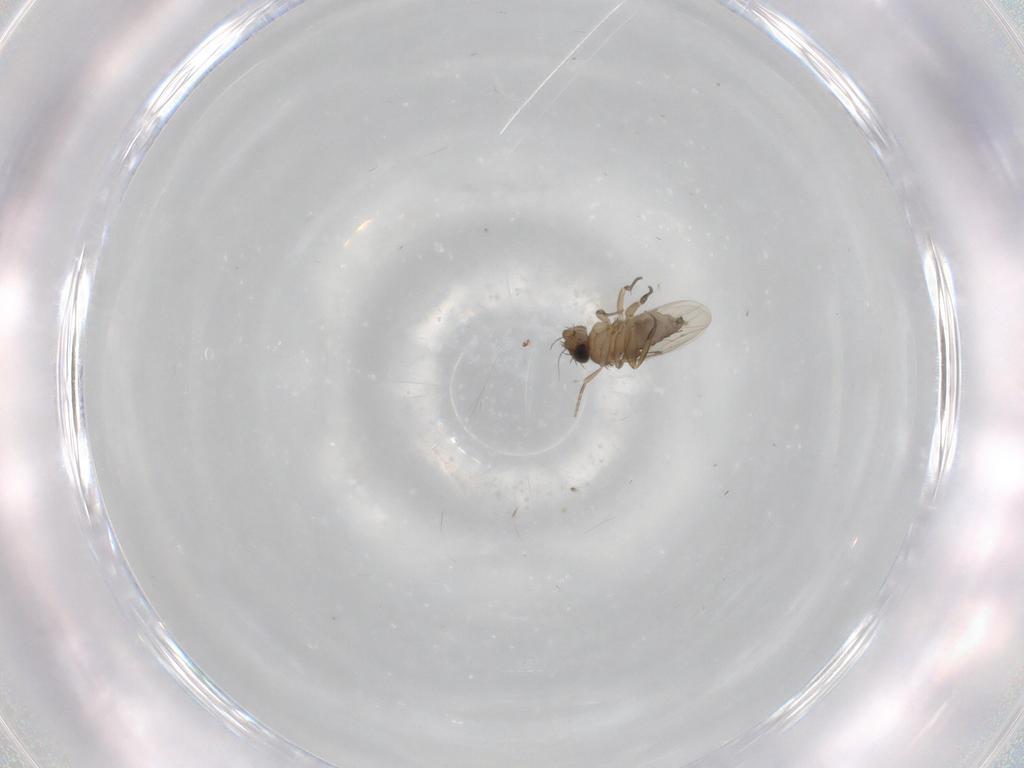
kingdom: Animalia
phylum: Arthropoda
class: Insecta
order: Diptera
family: Phoridae
